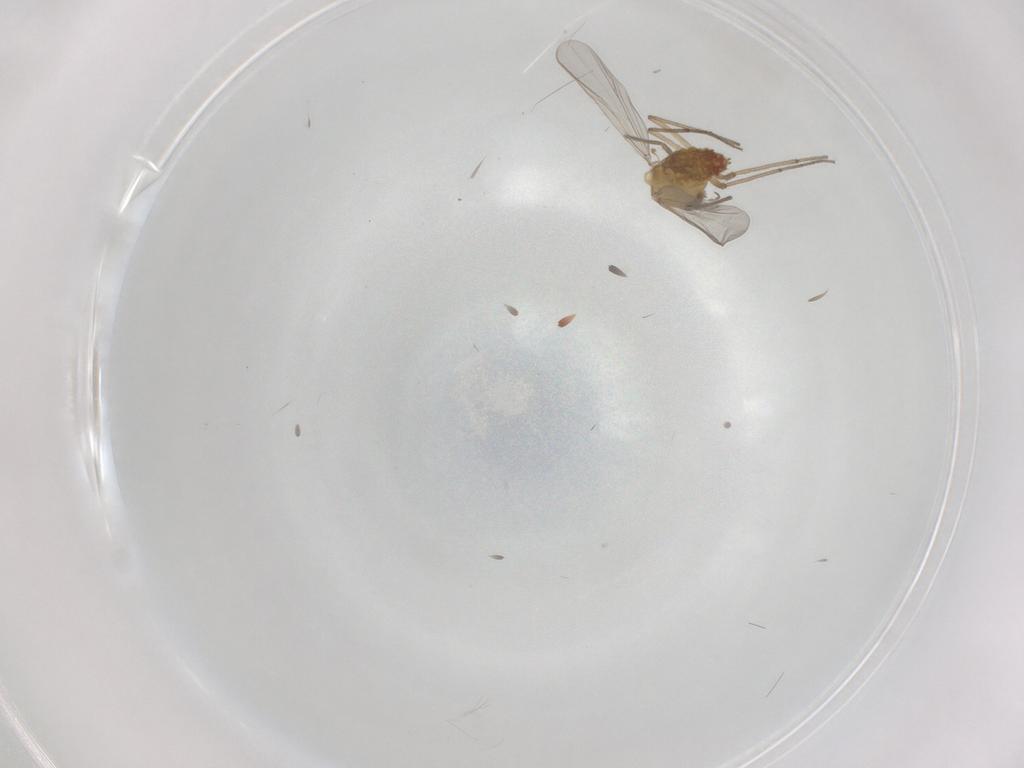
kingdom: Animalia
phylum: Arthropoda
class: Insecta
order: Diptera
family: Chironomidae
